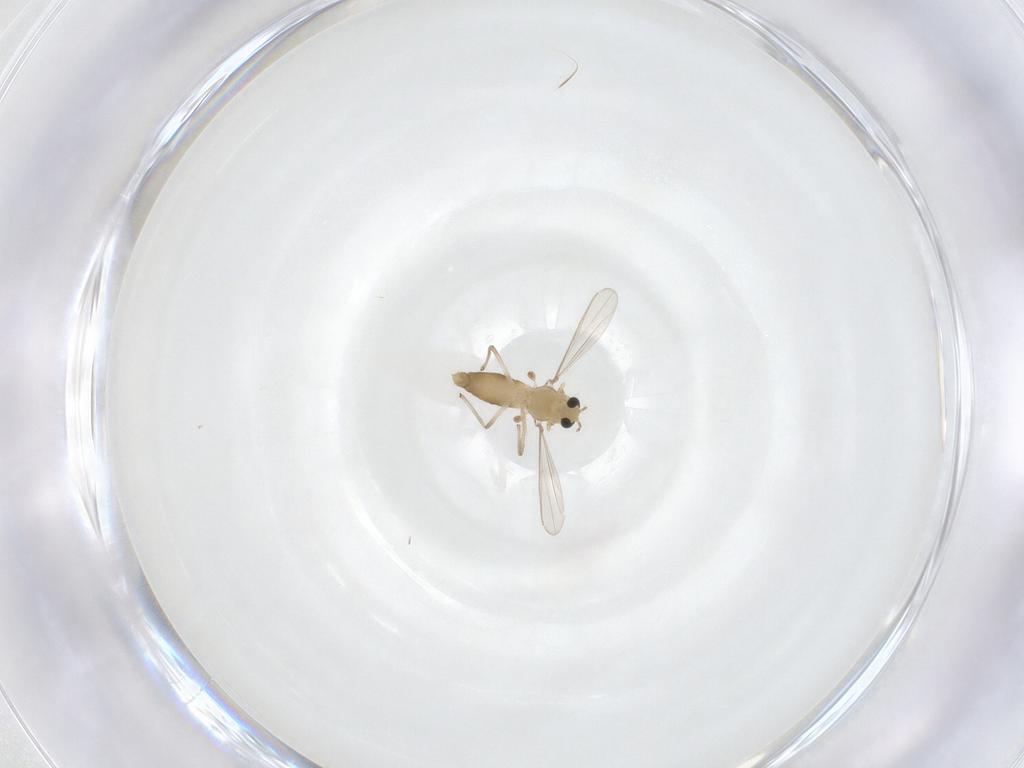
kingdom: Animalia
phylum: Arthropoda
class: Insecta
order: Diptera
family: Chironomidae
